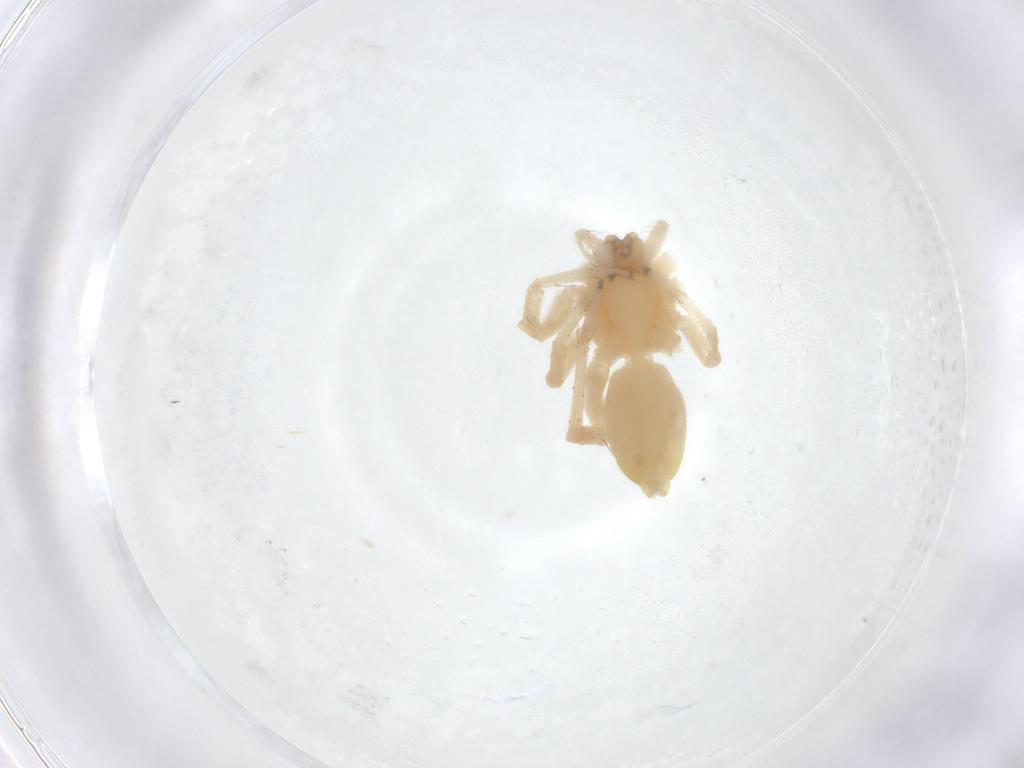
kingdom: Animalia
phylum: Arthropoda
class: Arachnida
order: Araneae
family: Anyphaenidae
